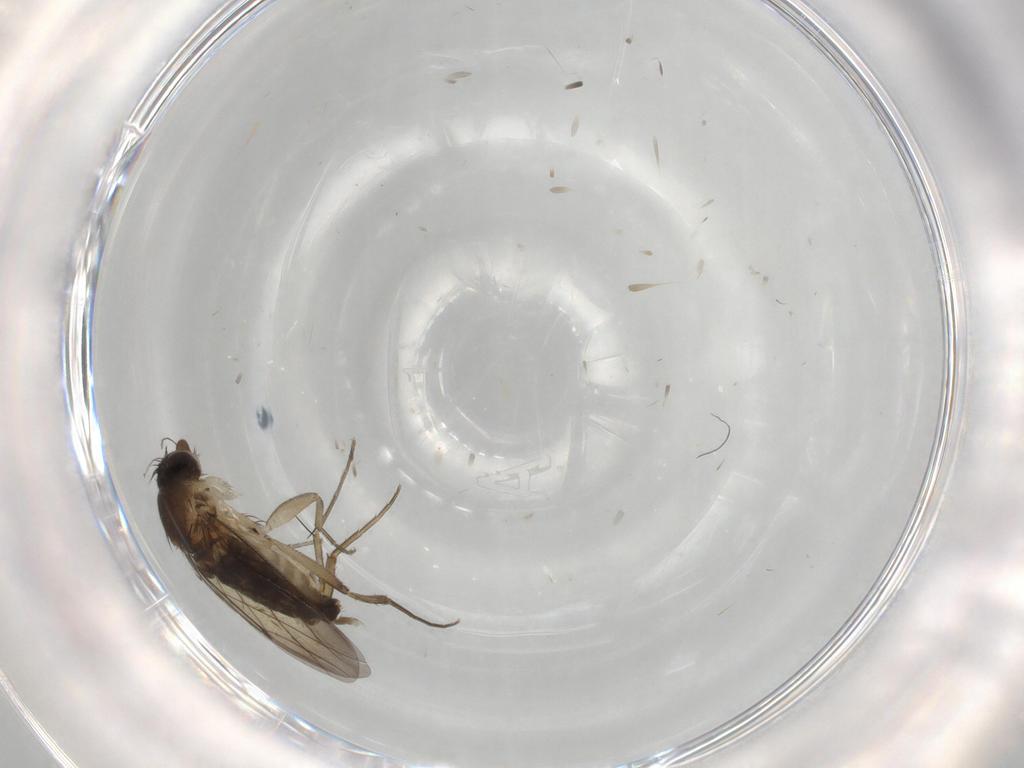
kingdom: Animalia
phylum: Arthropoda
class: Insecta
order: Diptera
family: Phoridae
